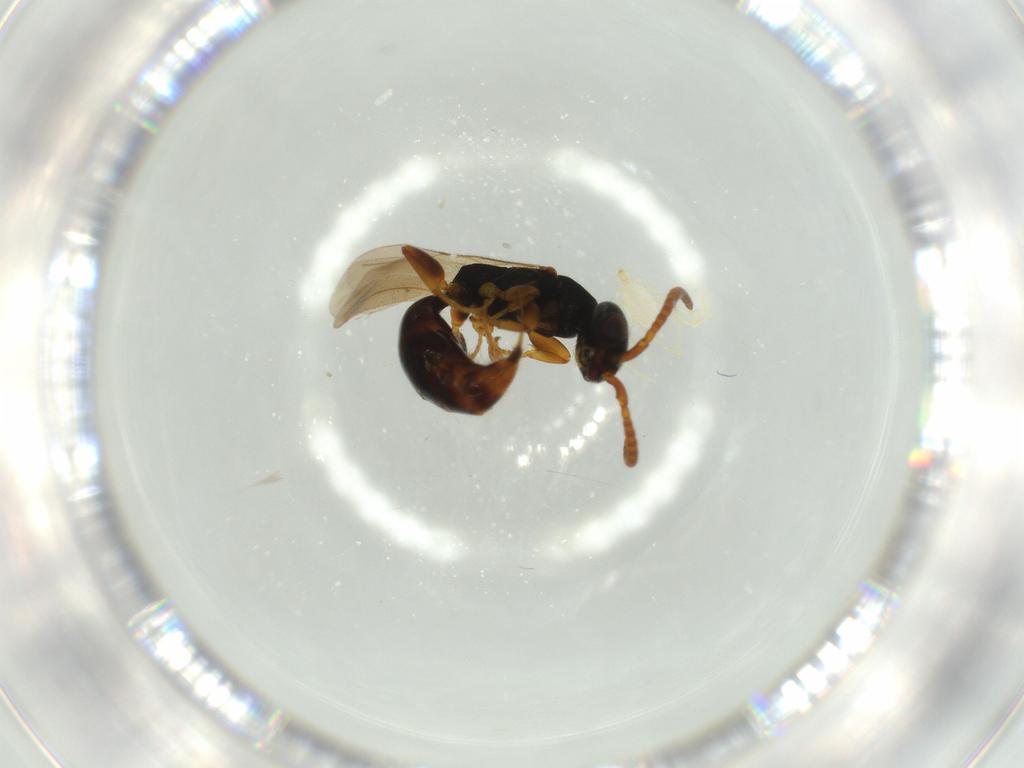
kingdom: Animalia
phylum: Arthropoda
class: Insecta
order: Hymenoptera
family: Bethylidae
